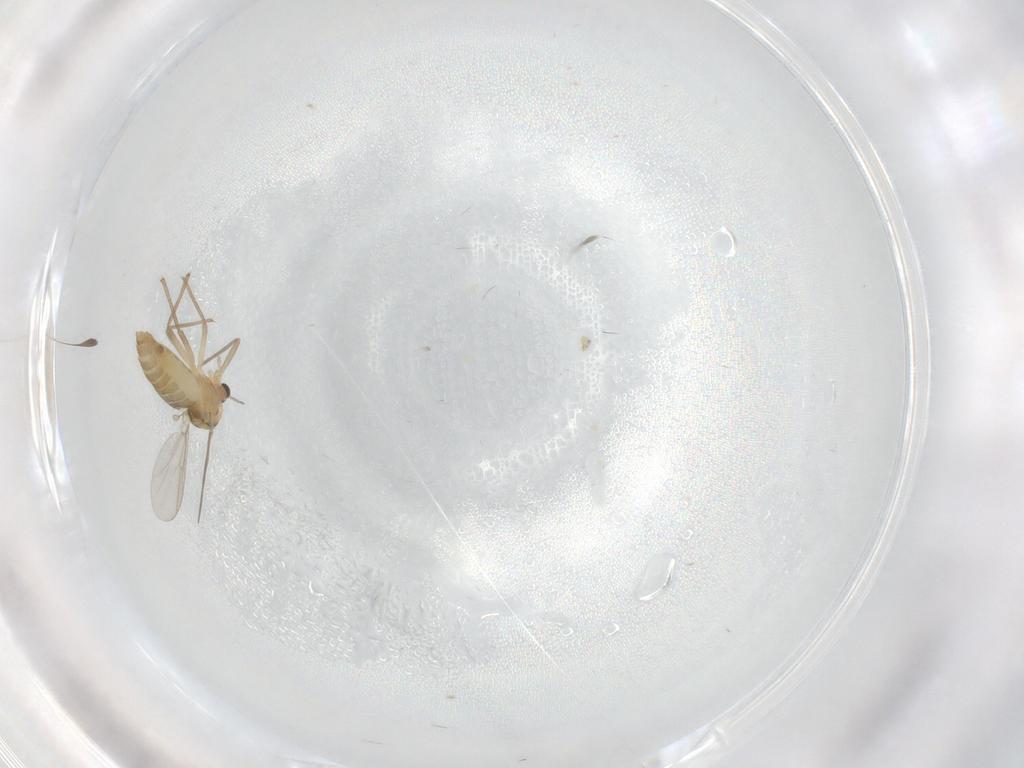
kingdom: Animalia
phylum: Arthropoda
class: Insecta
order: Diptera
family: Chironomidae
